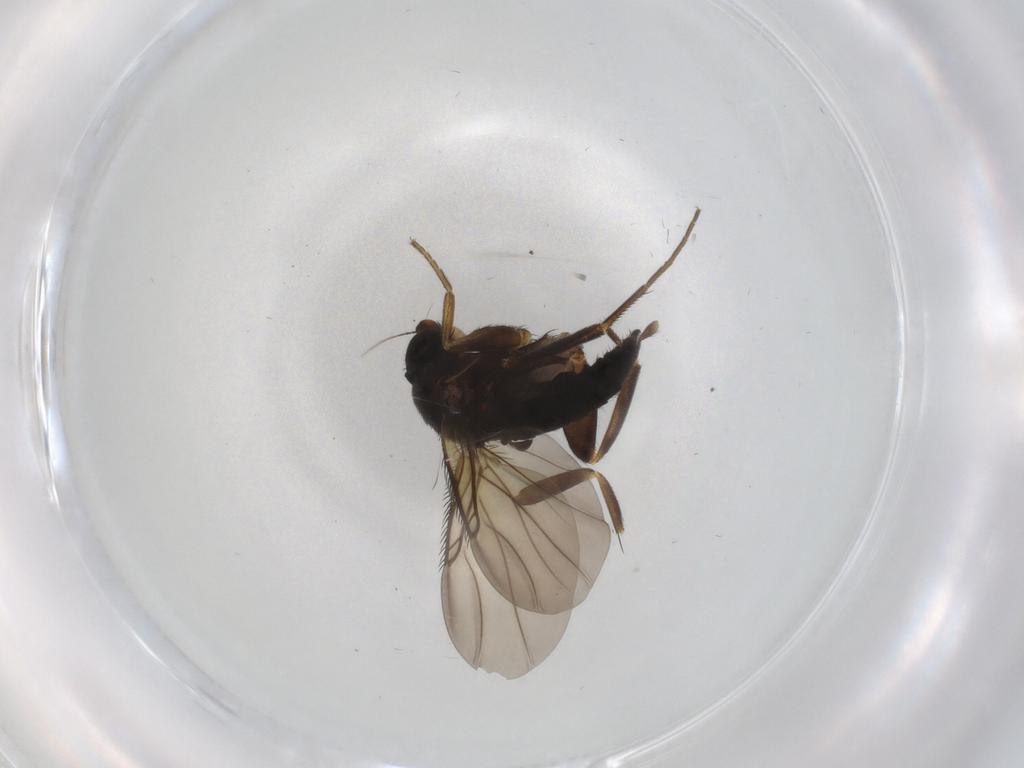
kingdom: Animalia
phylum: Arthropoda
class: Insecta
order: Diptera
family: Phoridae
